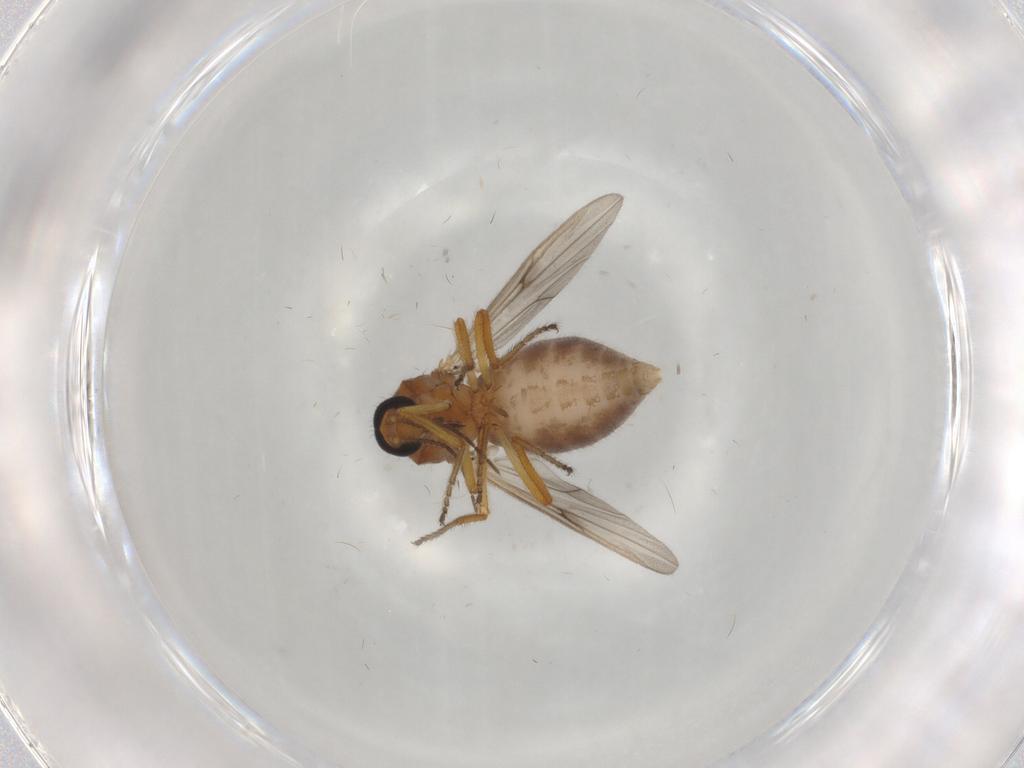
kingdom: Animalia
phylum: Arthropoda
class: Insecta
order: Diptera
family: Ceratopogonidae
